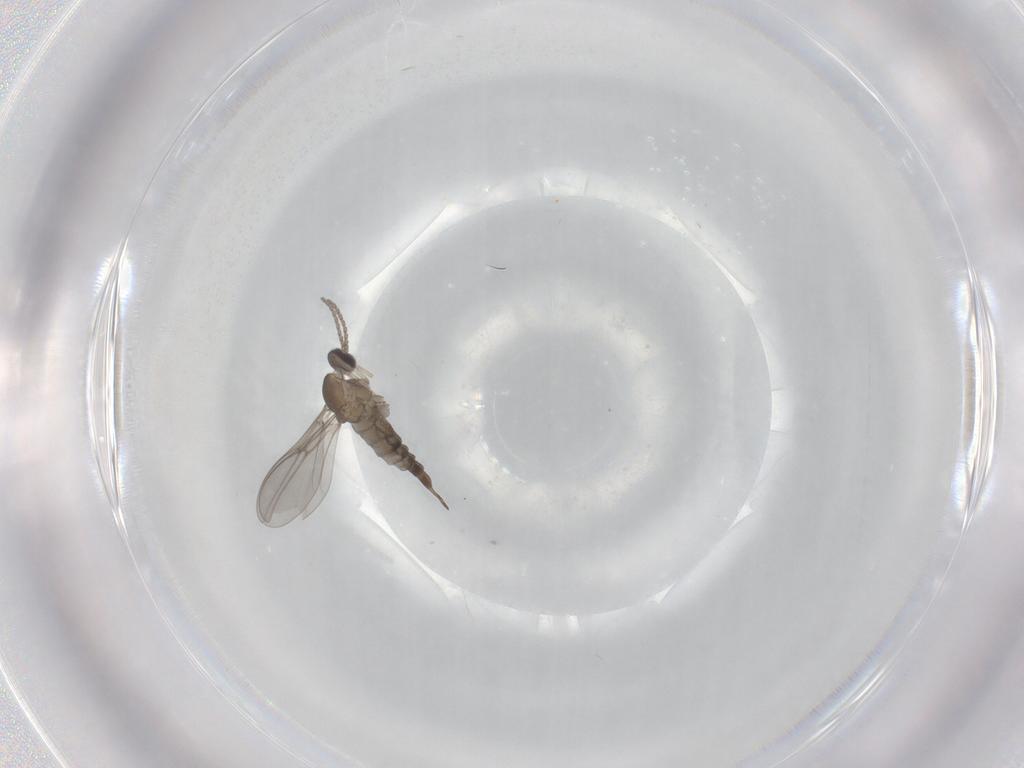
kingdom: Animalia
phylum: Arthropoda
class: Insecta
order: Diptera
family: Cecidomyiidae
